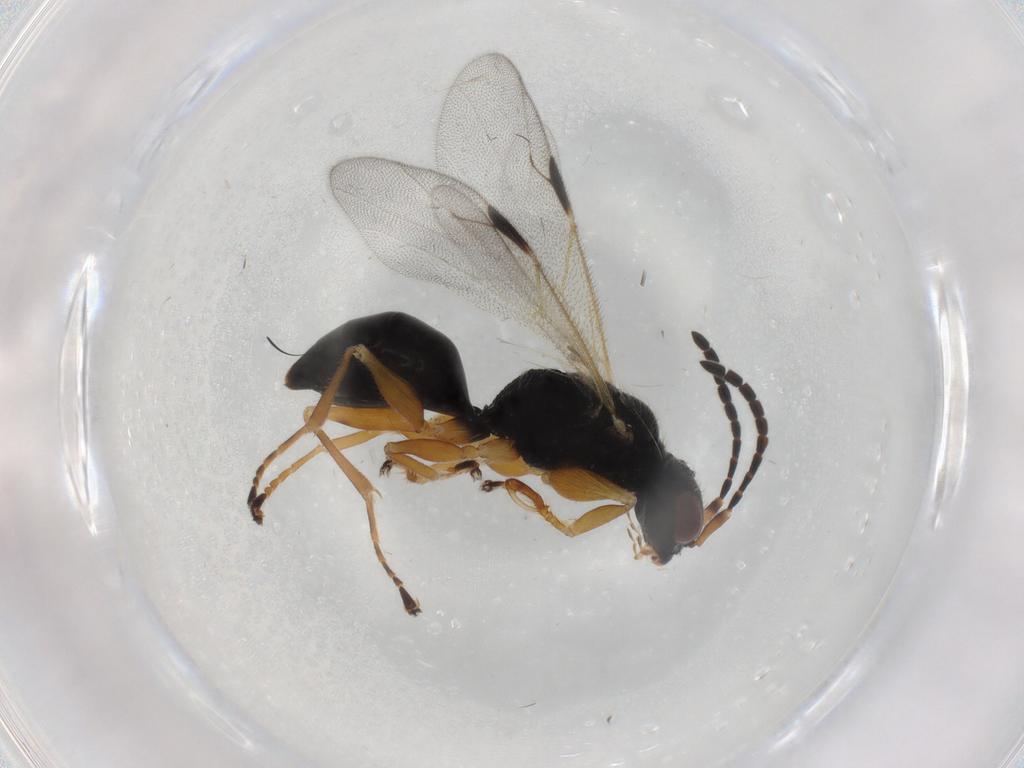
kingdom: Animalia
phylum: Arthropoda
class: Insecta
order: Hymenoptera
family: Dryinidae
